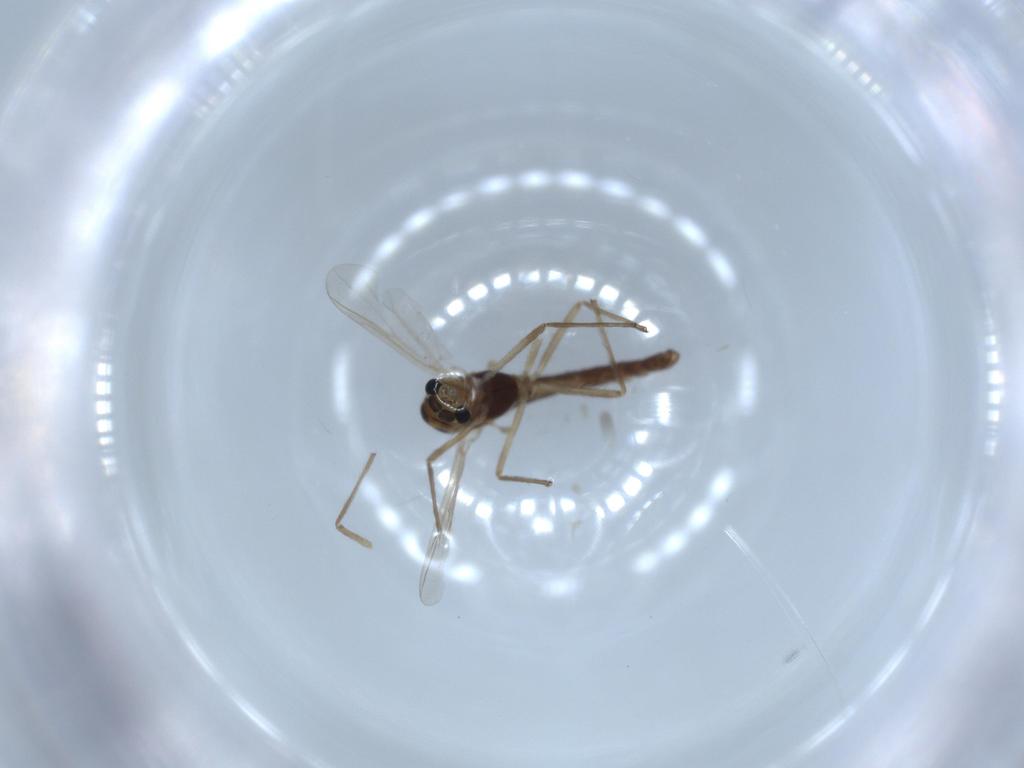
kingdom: Animalia
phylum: Arthropoda
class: Insecta
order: Diptera
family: Chironomidae
